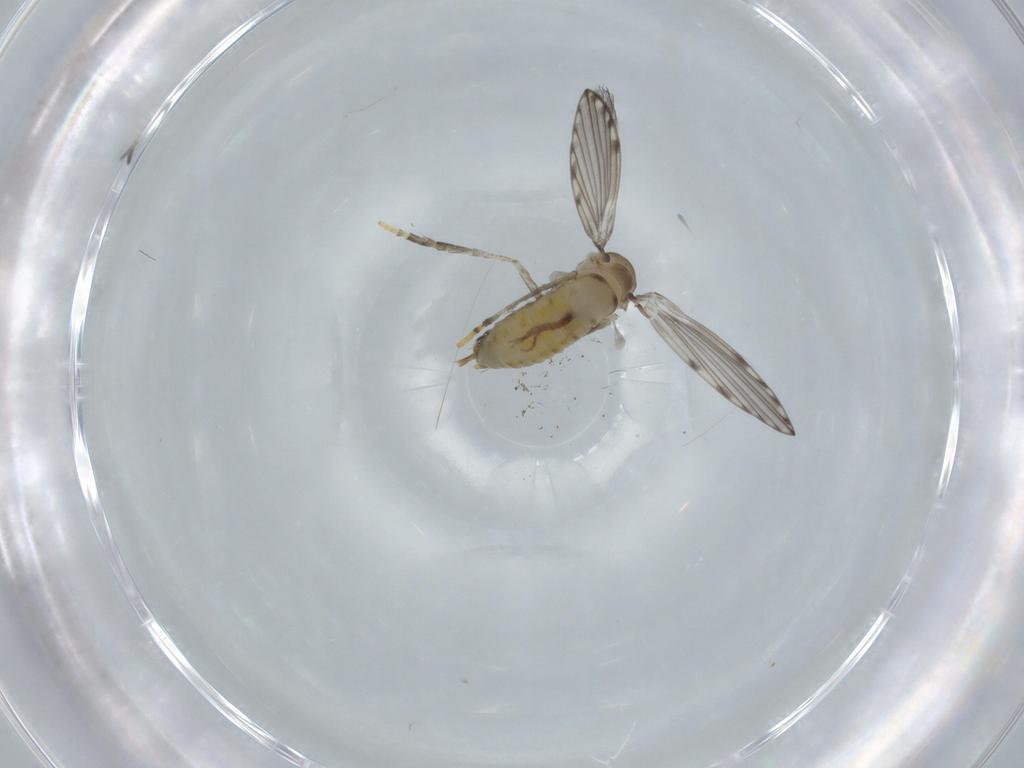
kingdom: Animalia
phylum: Arthropoda
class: Insecta
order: Diptera
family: Psychodidae
